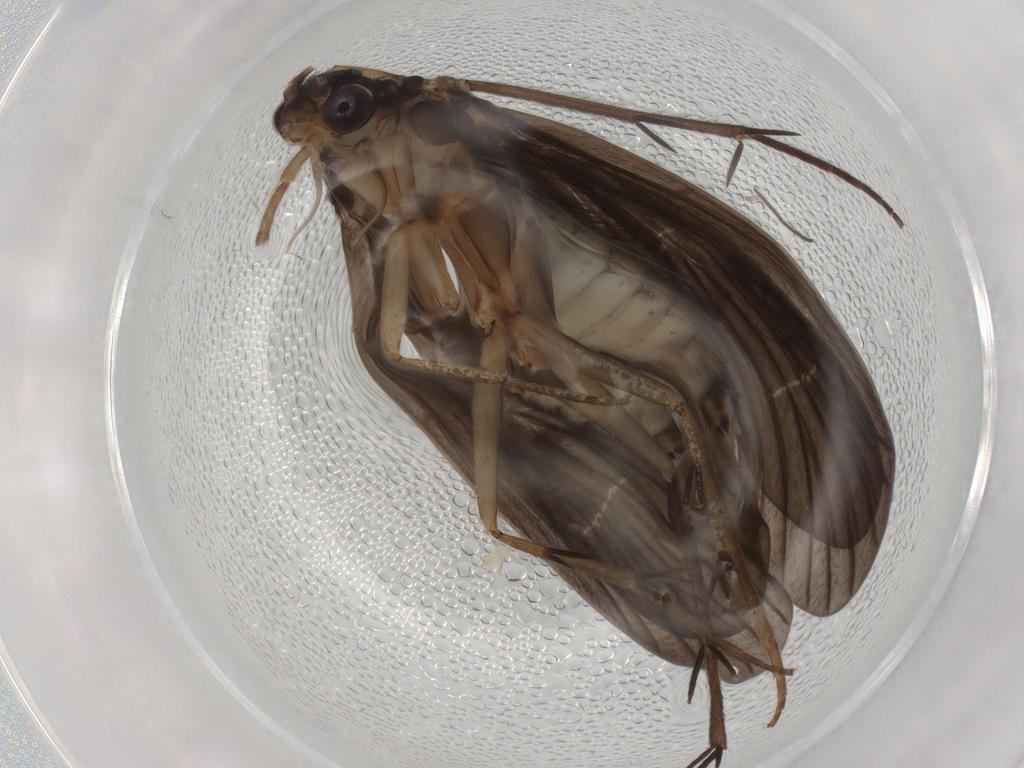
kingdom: Animalia
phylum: Arthropoda
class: Insecta
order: Trichoptera
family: Philopotamidae
